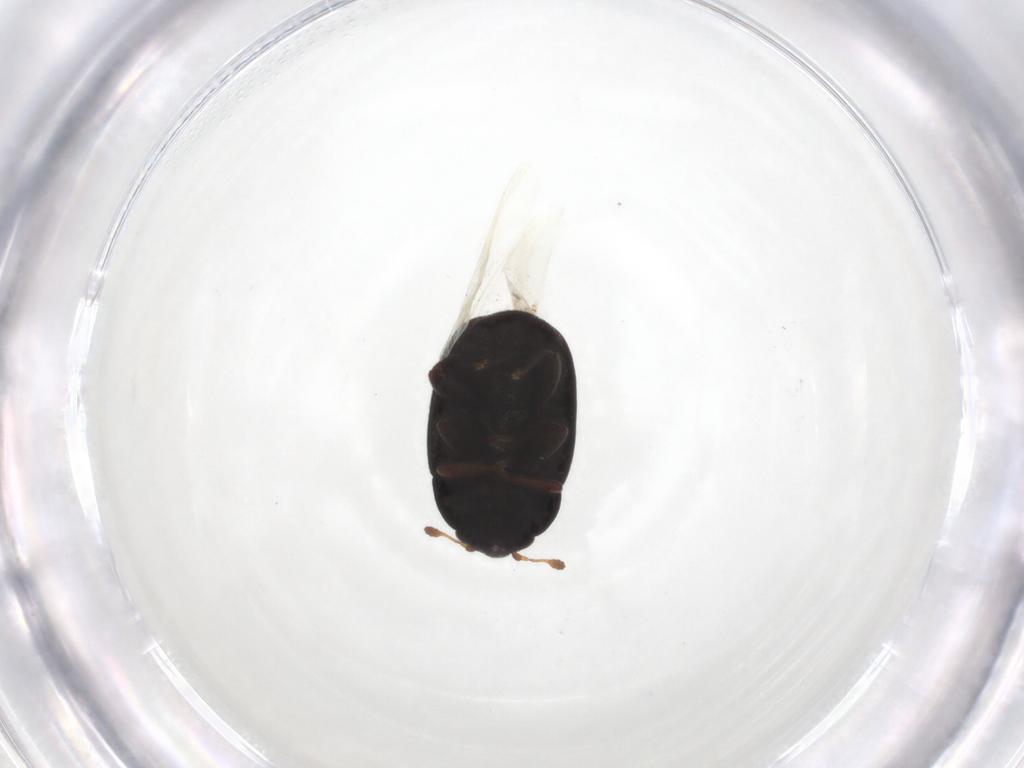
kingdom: Animalia
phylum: Arthropoda
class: Insecta
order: Coleoptera
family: Nitidulidae
